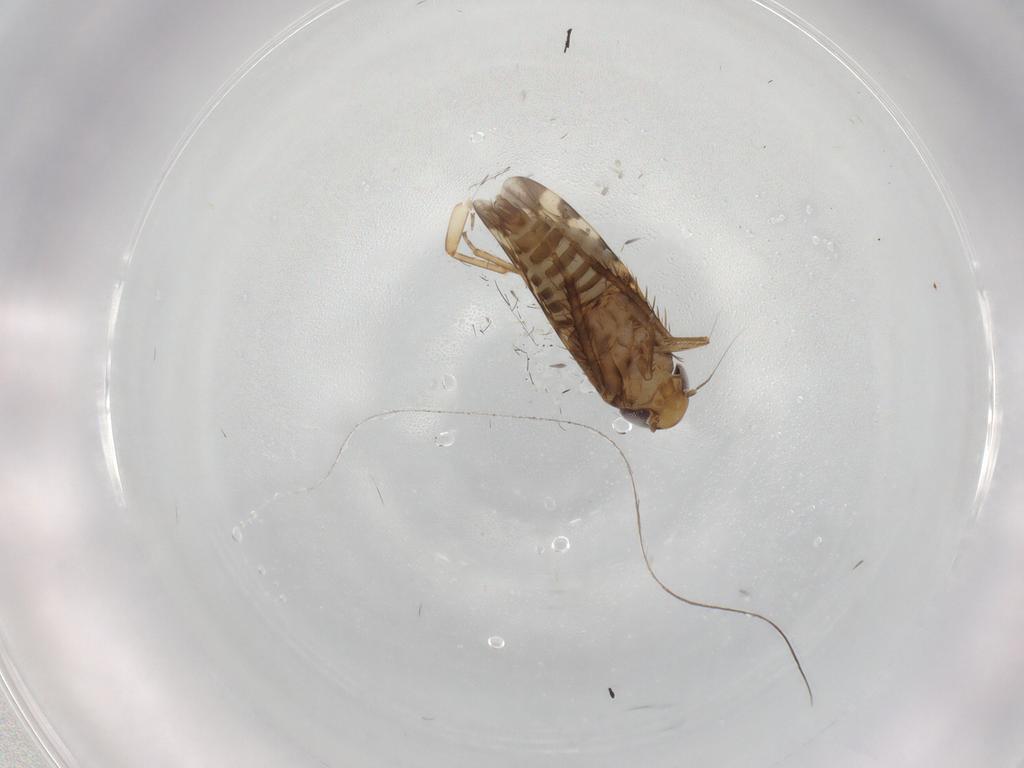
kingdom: Animalia
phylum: Arthropoda
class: Insecta
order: Hemiptera
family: Cicadellidae
